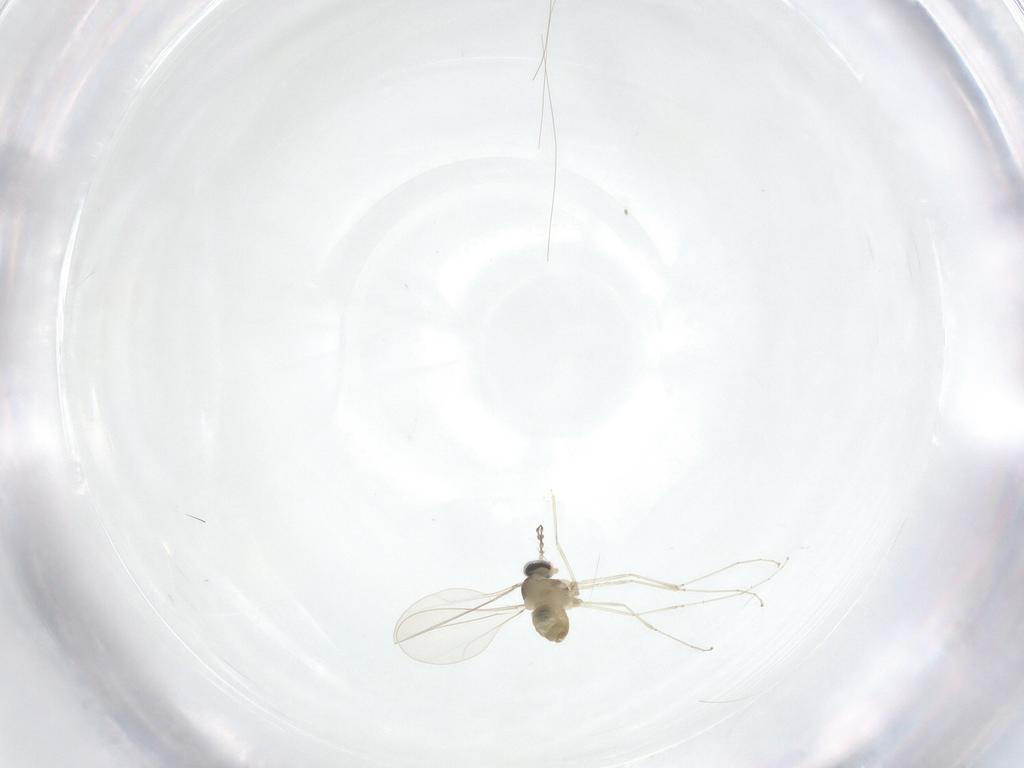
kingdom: Animalia
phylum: Arthropoda
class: Insecta
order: Diptera
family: Cecidomyiidae
